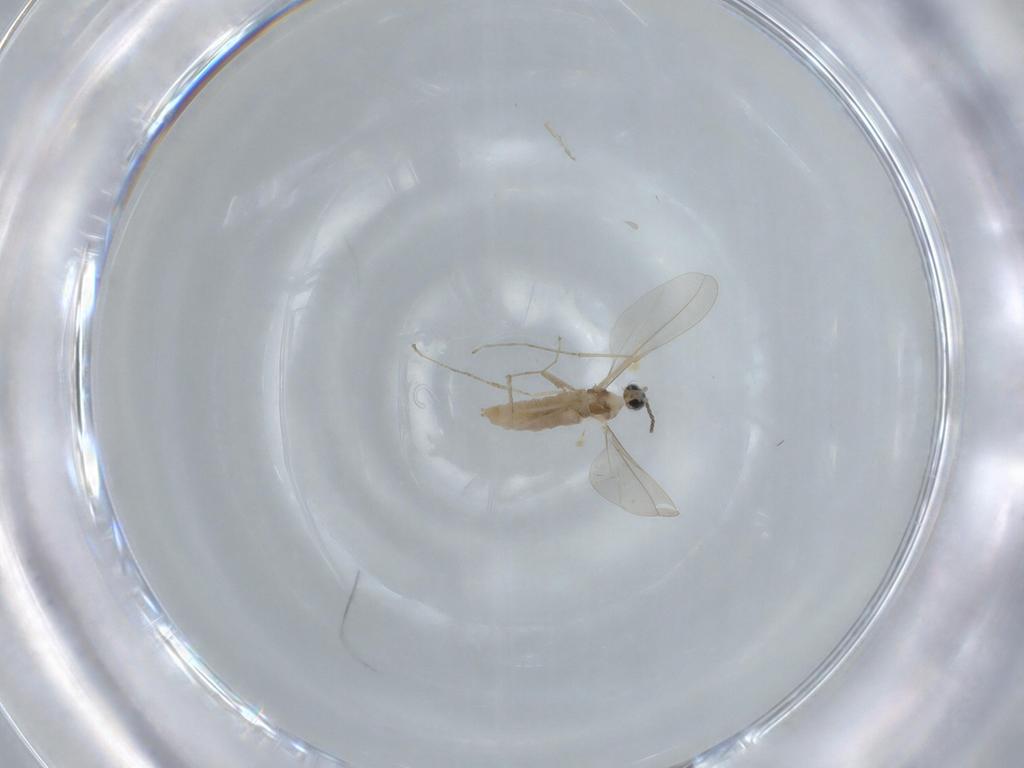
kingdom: Animalia
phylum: Arthropoda
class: Insecta
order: Diptera
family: Cecidomyiidae
